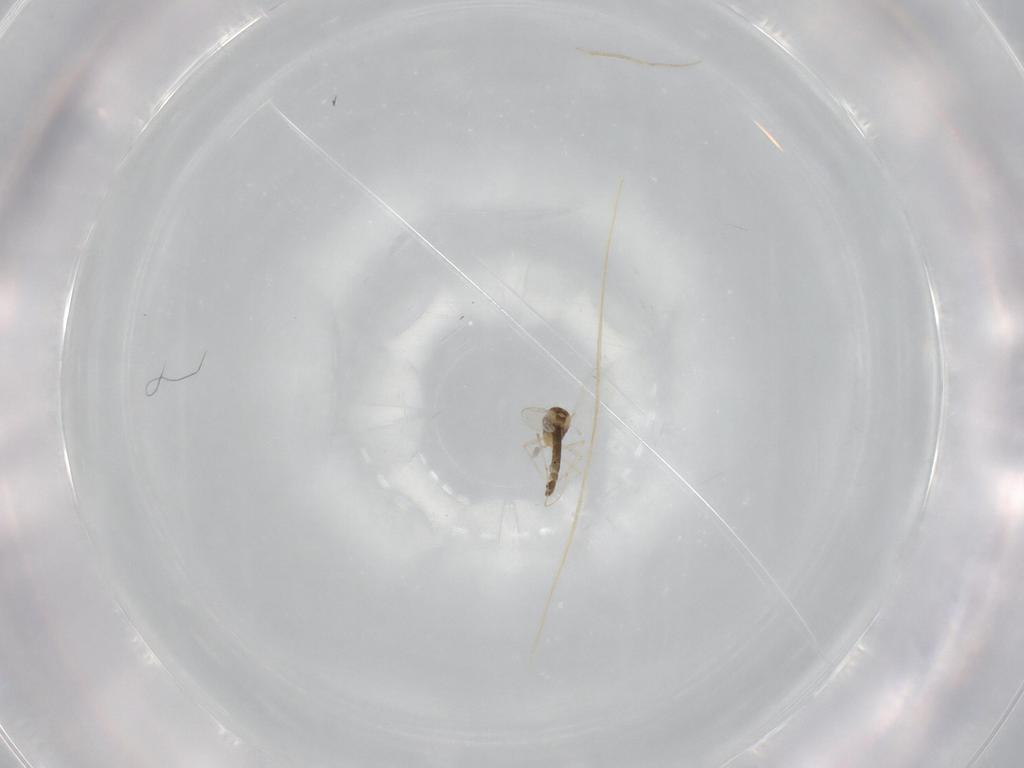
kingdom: Animalia
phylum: Arthropoda
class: Insecta
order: Diptera
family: Chironomidae
